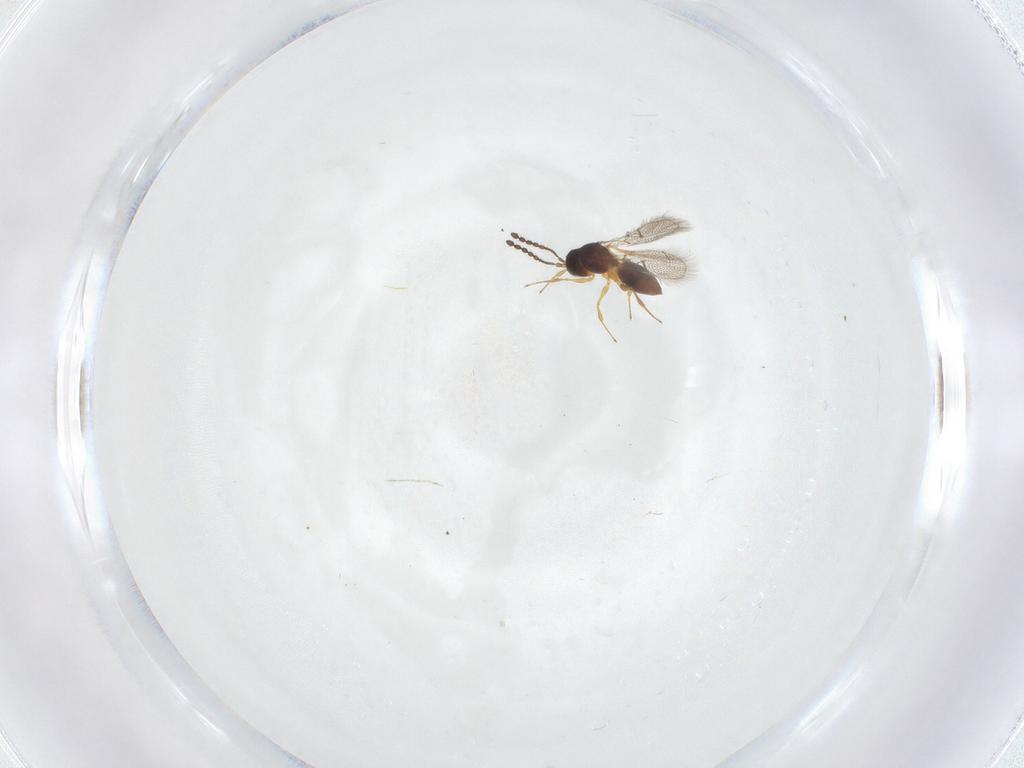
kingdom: Animalia
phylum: Arthropoda
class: Insecta
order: Hymenoptera
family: Figitidae
